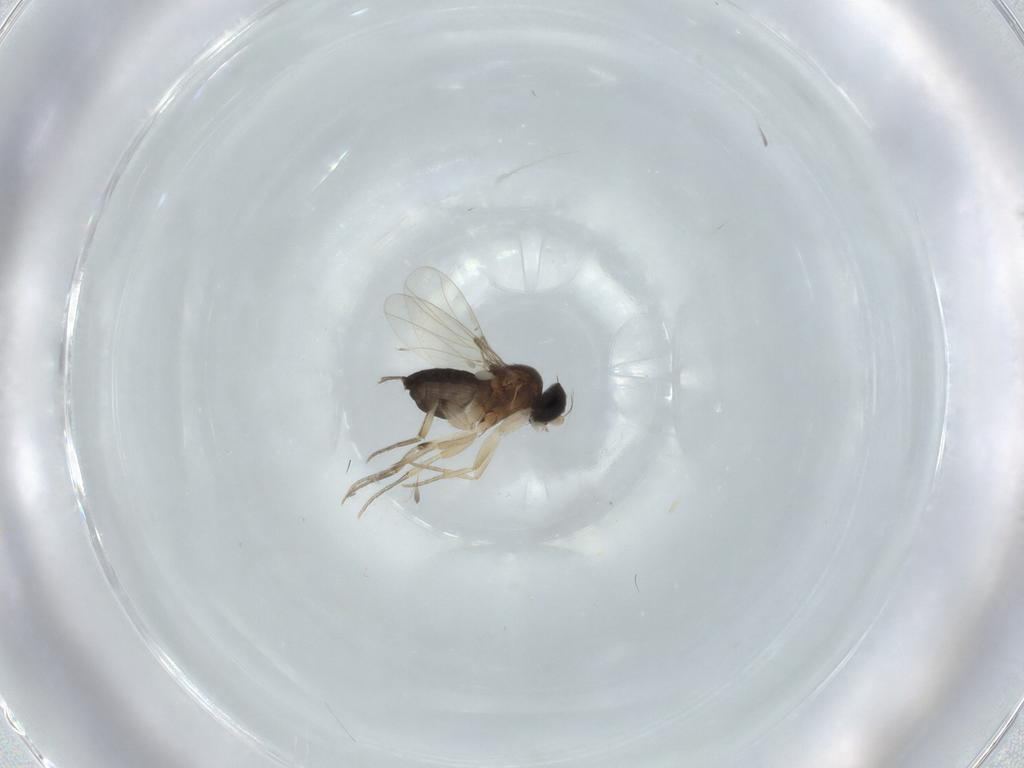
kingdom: Animalia
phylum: Arthropoda
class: Insecta
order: Diptera
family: Phoridae
